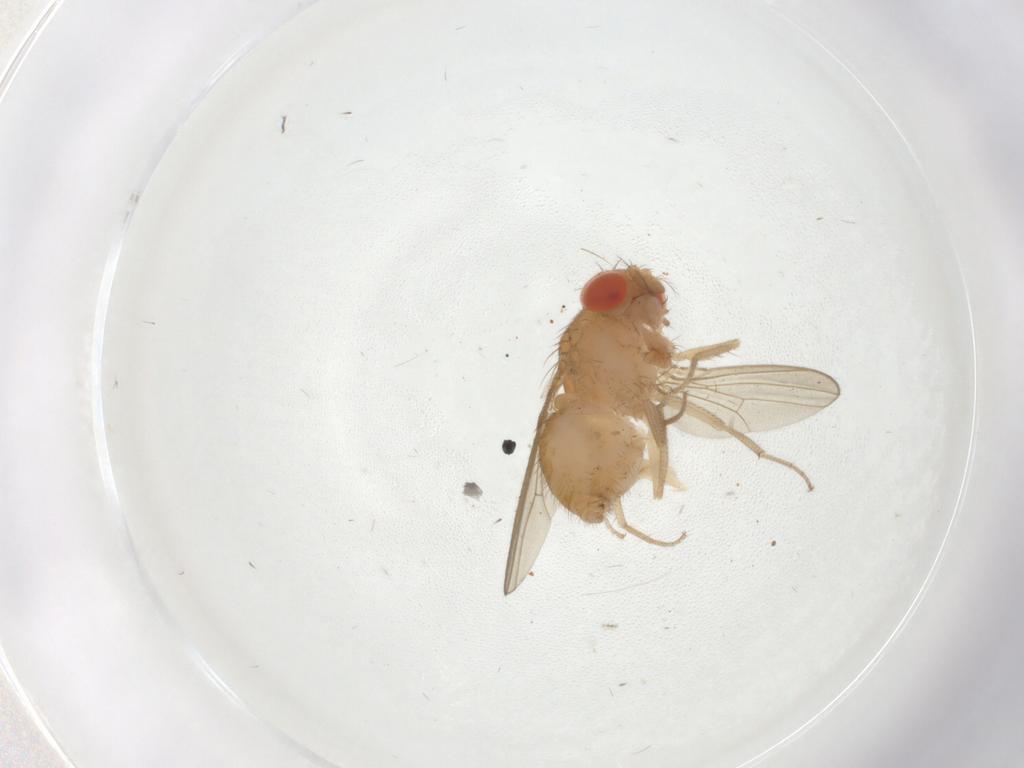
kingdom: Animalia
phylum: Arthropoda
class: Insecta
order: Diptera
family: Drosophilidae
